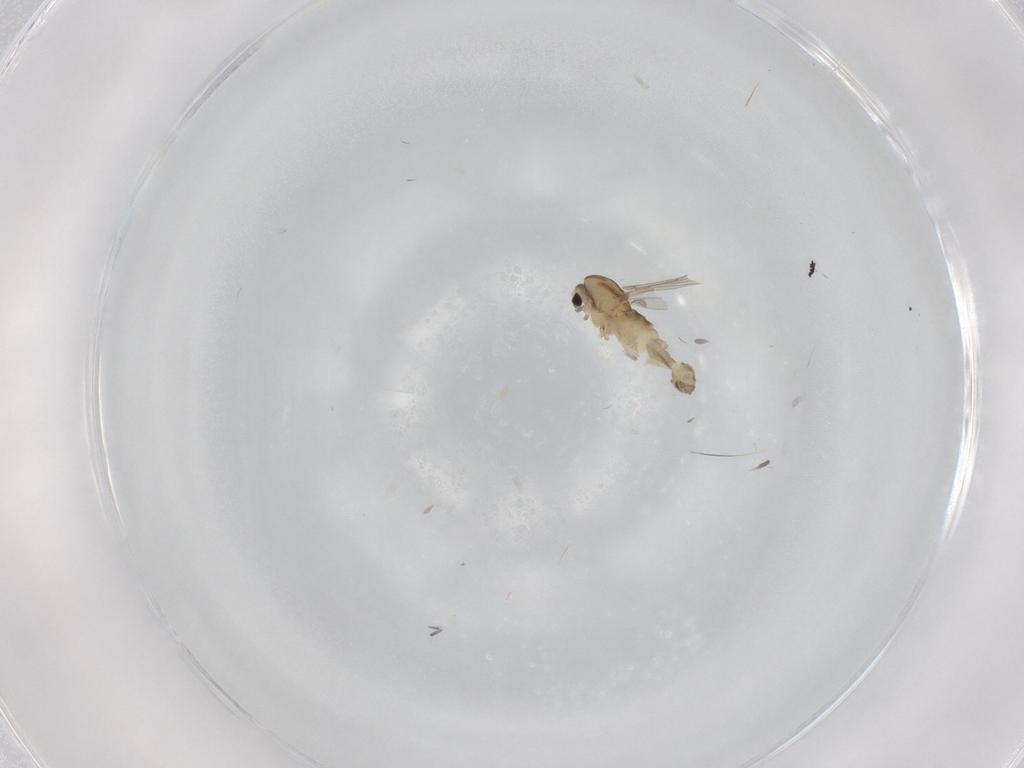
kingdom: Animalia
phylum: Arthropoda
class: Insecta
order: Diptera
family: Chironomidae
